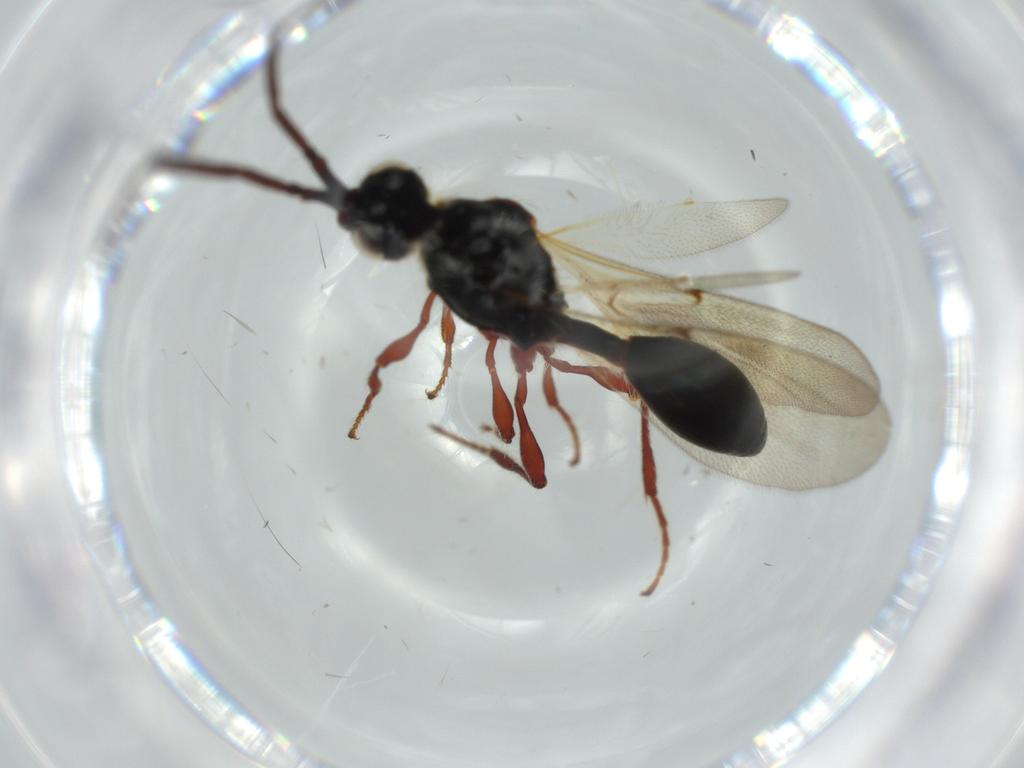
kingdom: Animalia
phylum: Arthropoda
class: Insecta
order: Hymenoptera
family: Diapriidae
